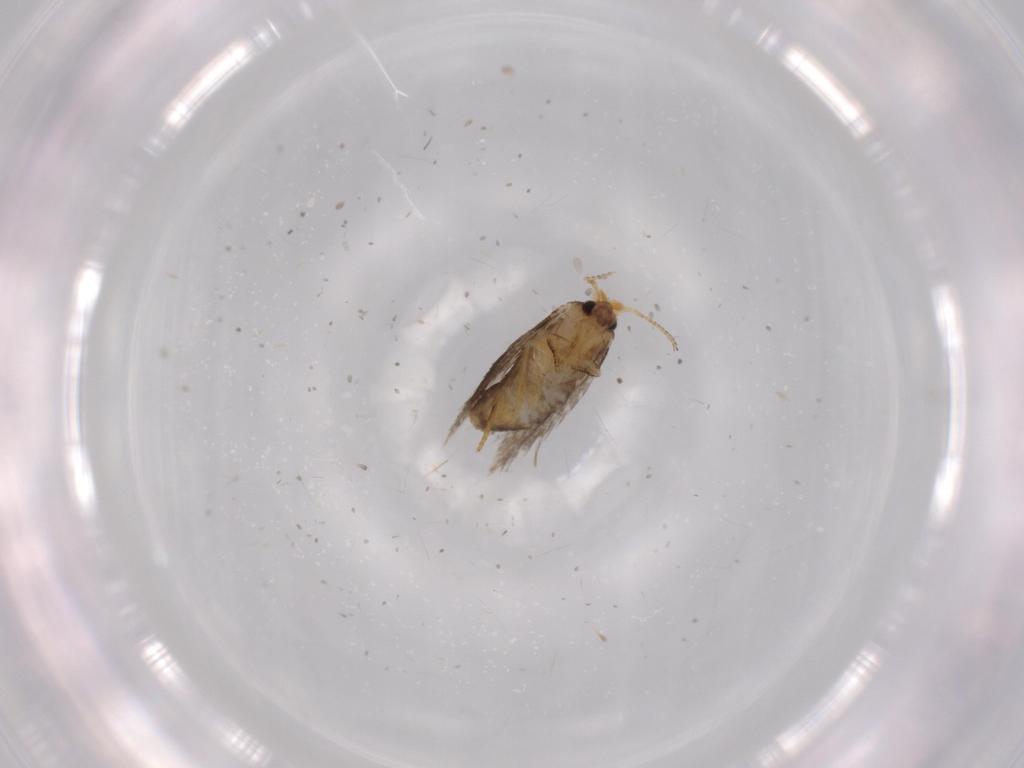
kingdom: Animalia
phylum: Arthropoda
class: Insecta
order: Lepidoptera
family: Nepticulidae
